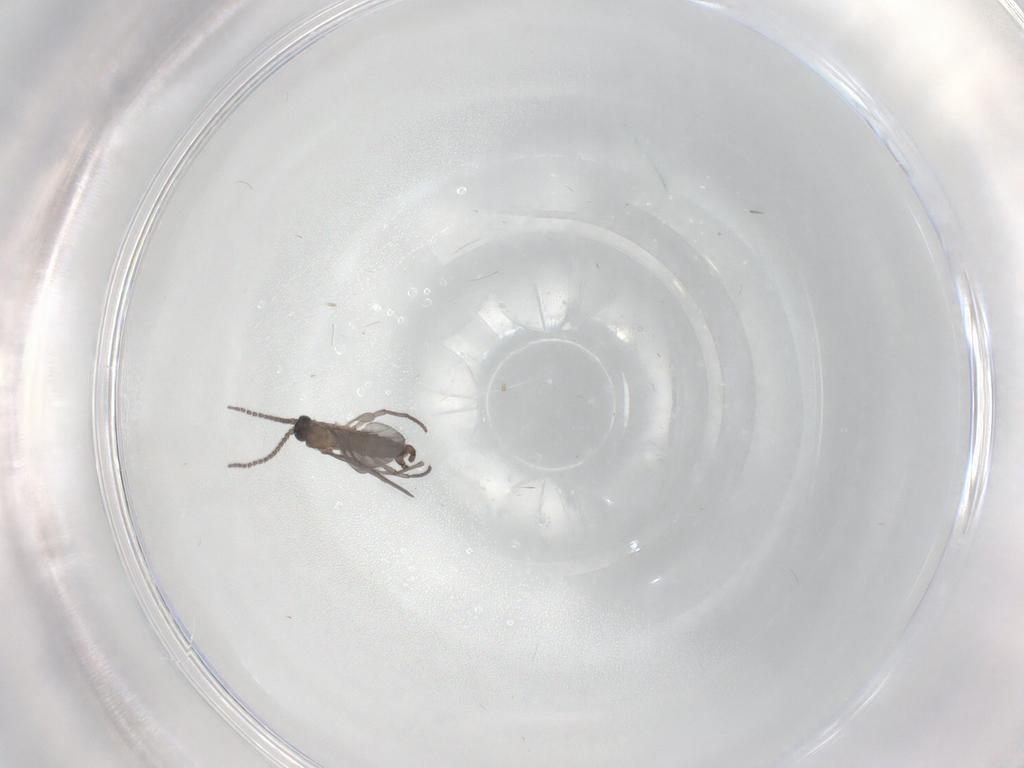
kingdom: Animalia
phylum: Arthropoda
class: Insecta
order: Diptera
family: Sciaridae
